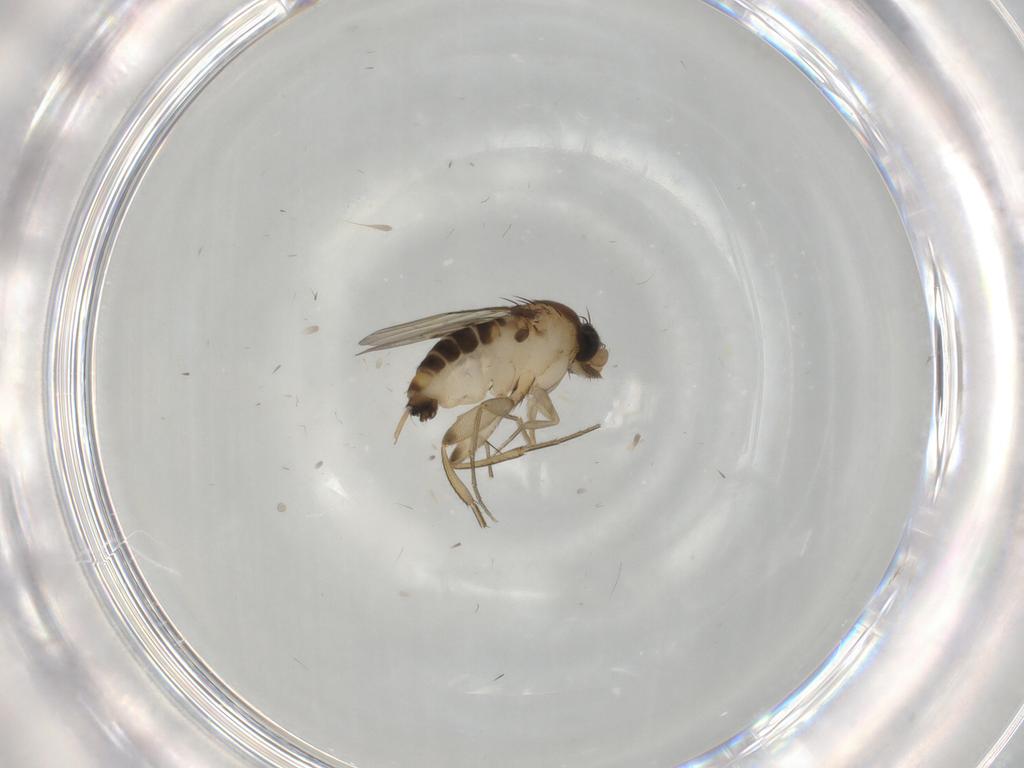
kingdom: Animalia
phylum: Arthropoda
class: Insecta
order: Diptera
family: Phoridae
